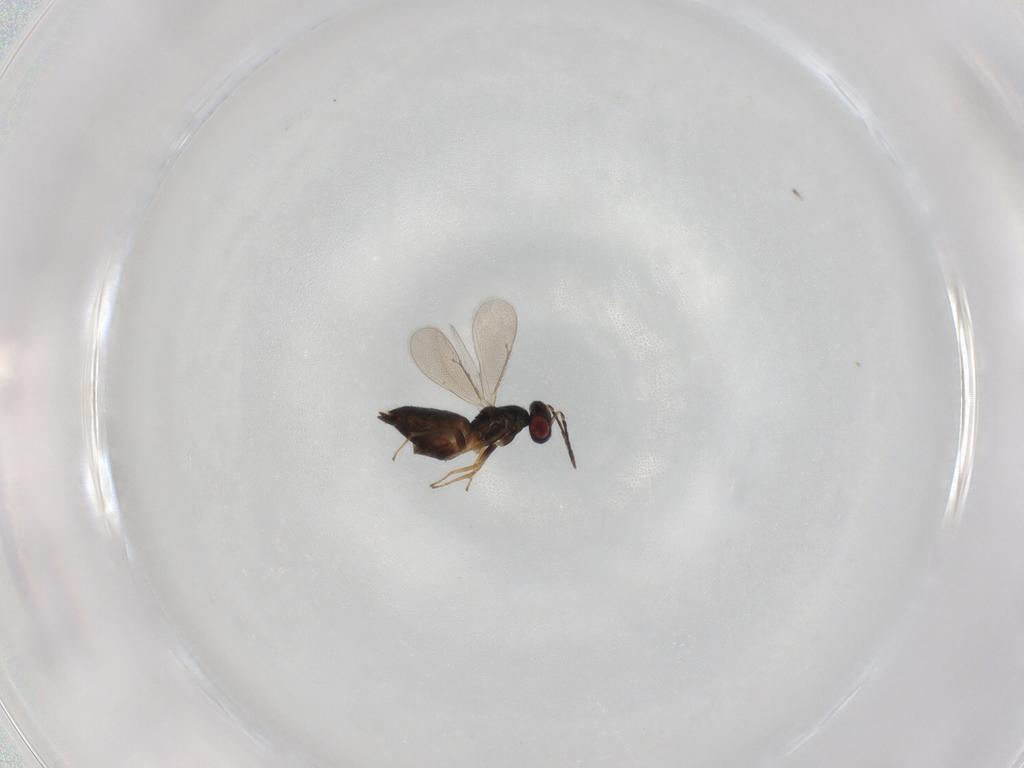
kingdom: Animalia
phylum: Arthropoda
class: Insecta
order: Hymenoptera
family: Eulophidae
